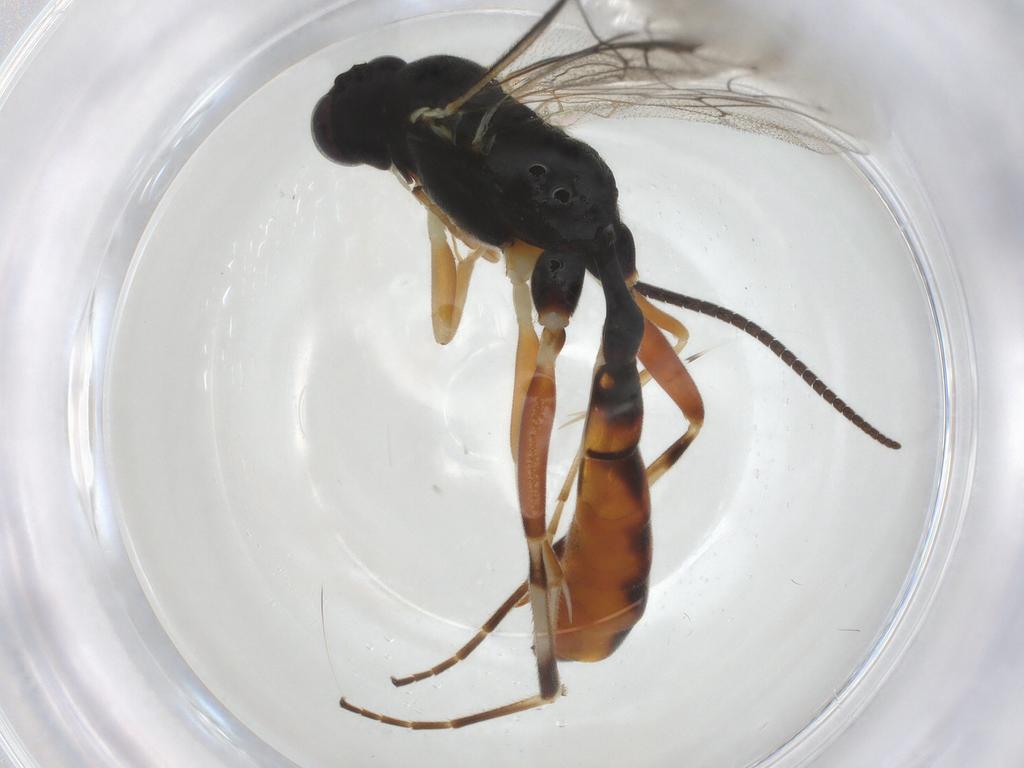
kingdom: Animalia
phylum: Arthropoda
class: Insecta
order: Hymenoptera
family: Ichneumonidae
